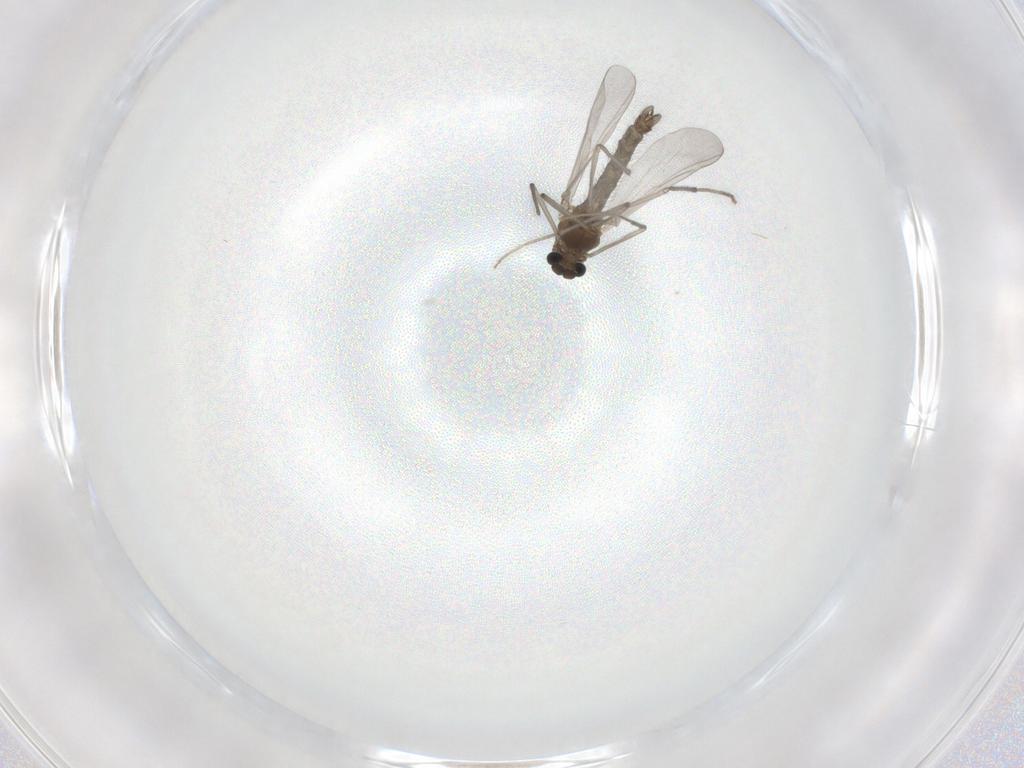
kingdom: Animalia
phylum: Arthropoda
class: Insecta
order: Diptera
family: Chironomidae
